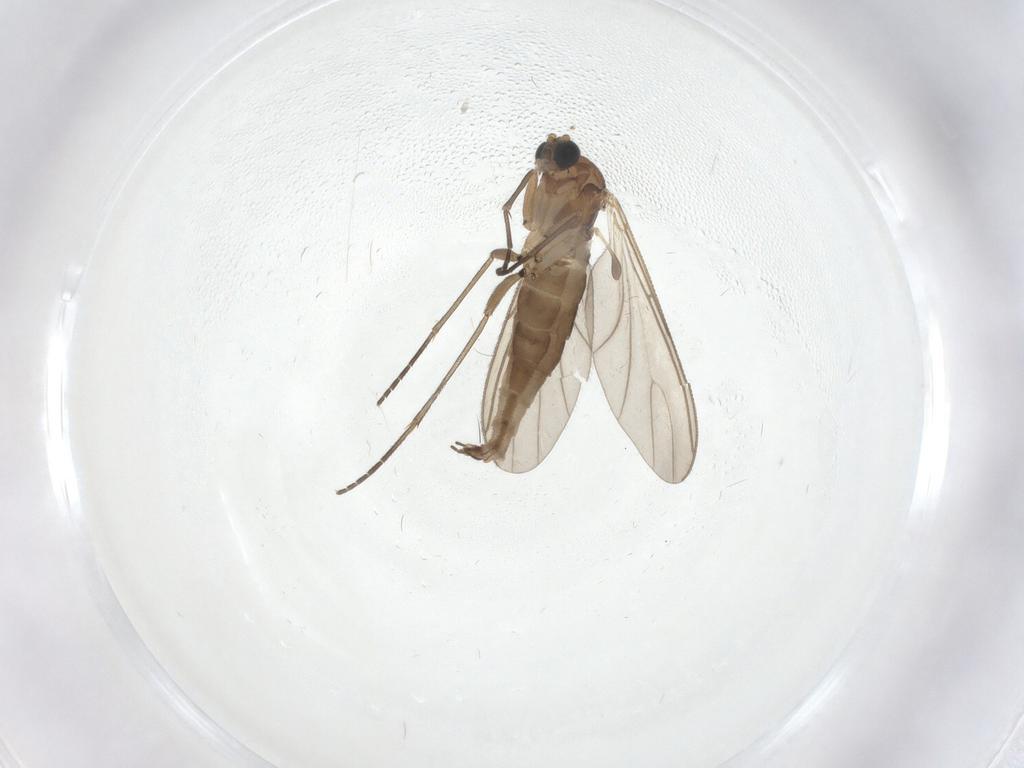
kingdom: Animalia
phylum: Arthropoda
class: Insecta
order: Diptera
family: Sciaridae
